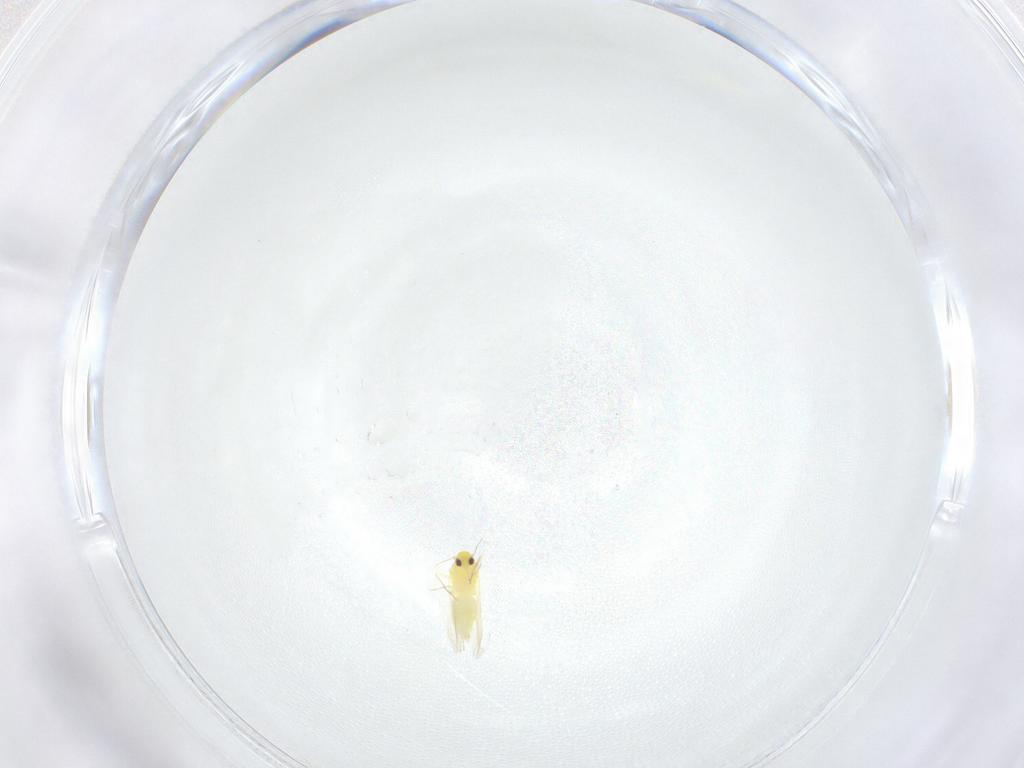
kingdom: Animalia
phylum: Arthropoda
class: Insecta
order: Hemiptera
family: Aleyrodidae
